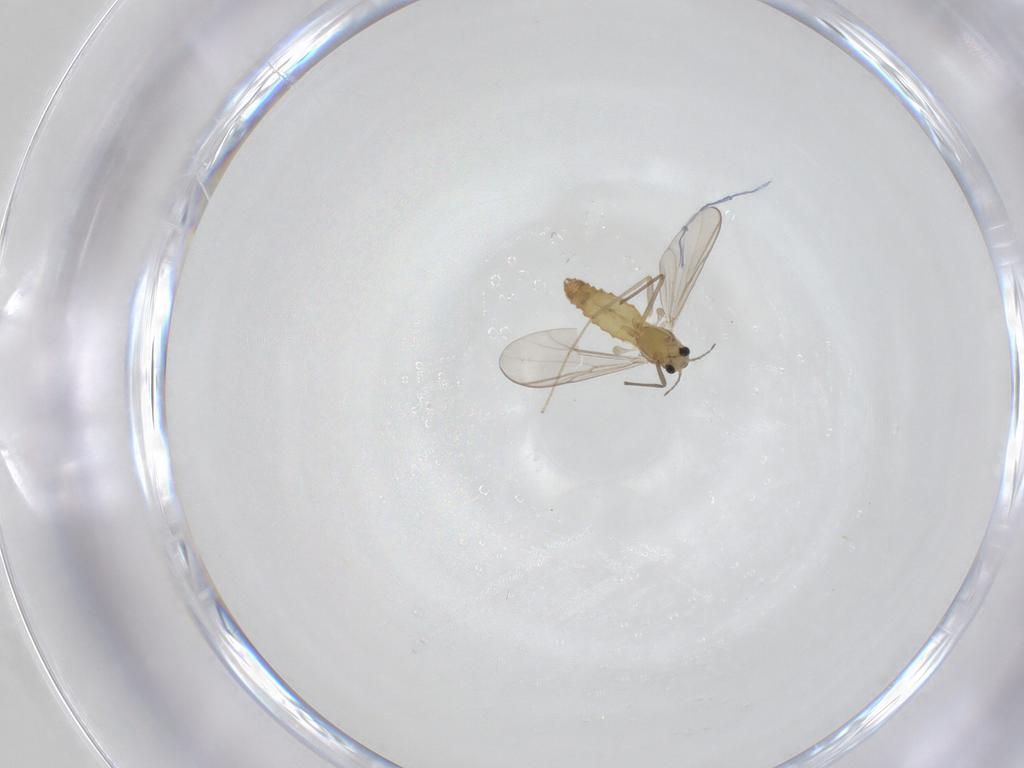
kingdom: Animalia
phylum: Arthropoda
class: Insecta
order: Diptera
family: Chironomidae
